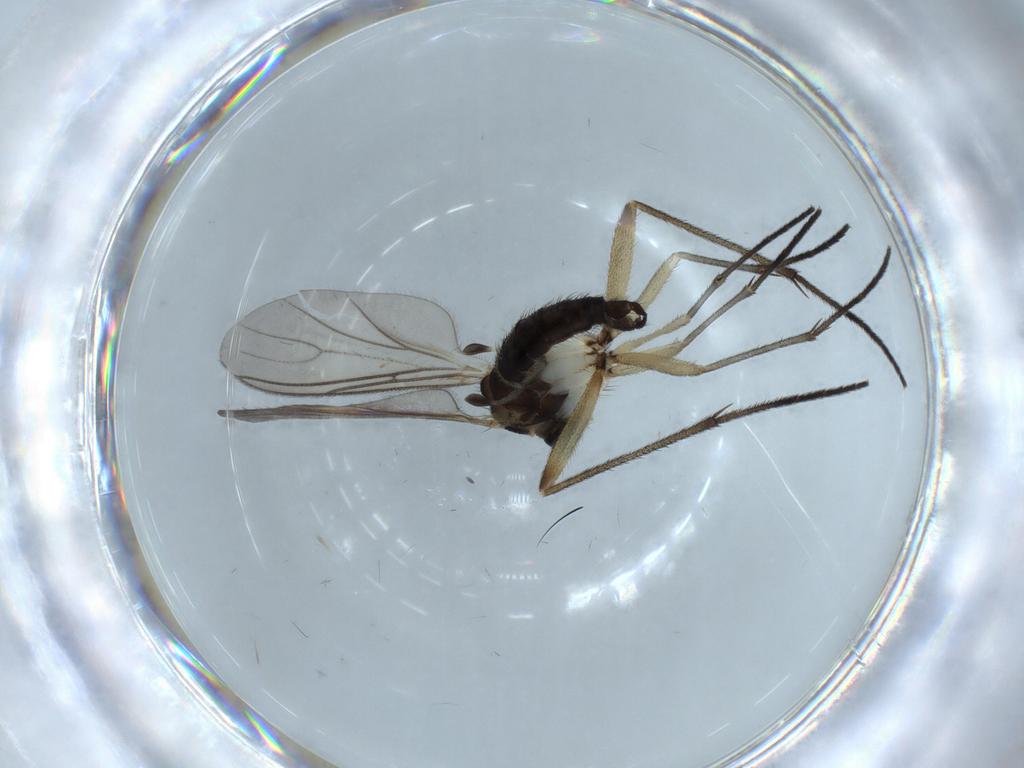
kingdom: Animalia
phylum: Arthropoda
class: Insecta
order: Diptera
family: Sciaridae
